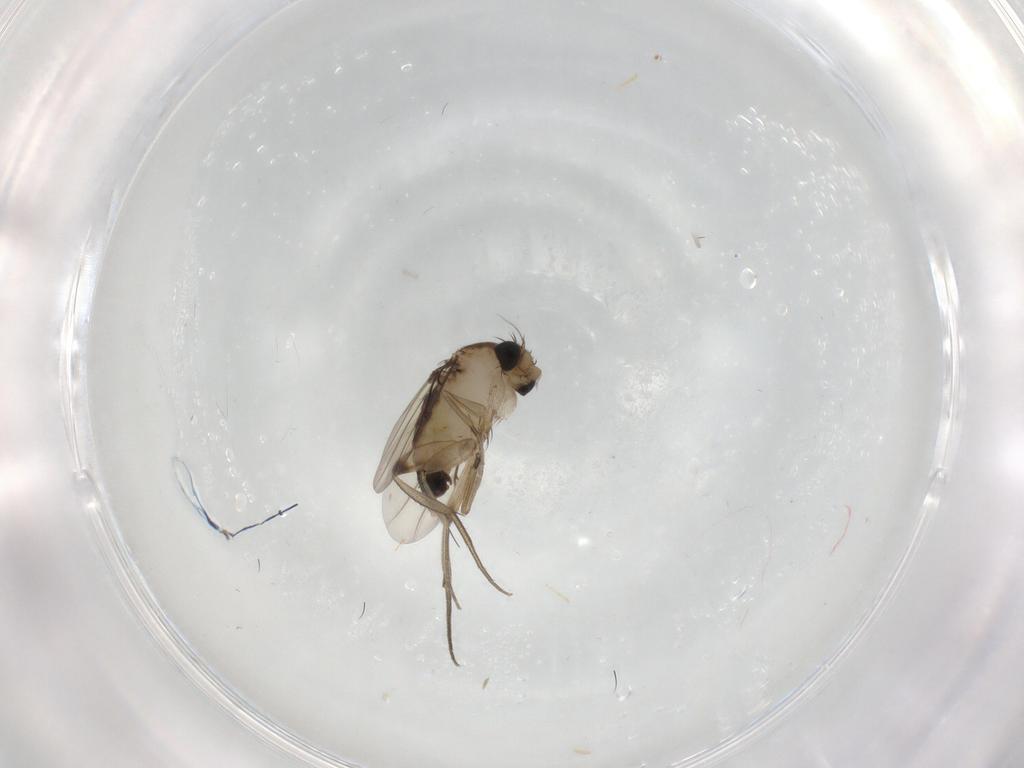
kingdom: Animalia
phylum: Arthropoda
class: Insecta
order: Diptera
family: Phoridae
